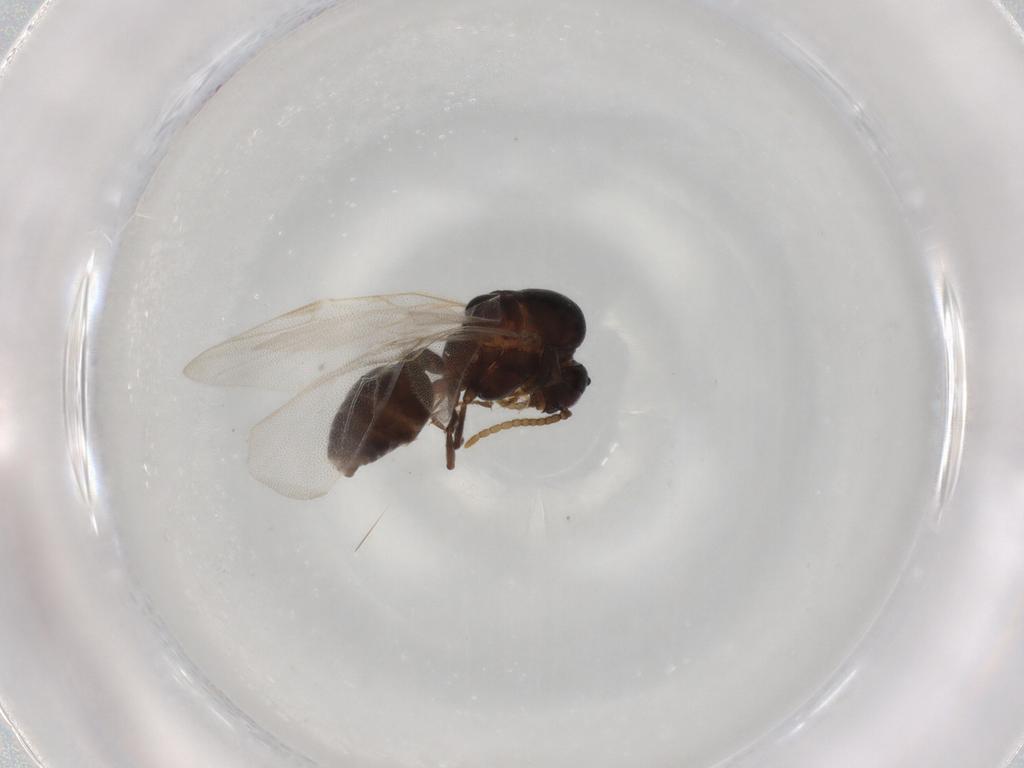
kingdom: Animalia
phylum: Arthropoda
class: Insecta
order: Hymenoptera
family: Formicidae
